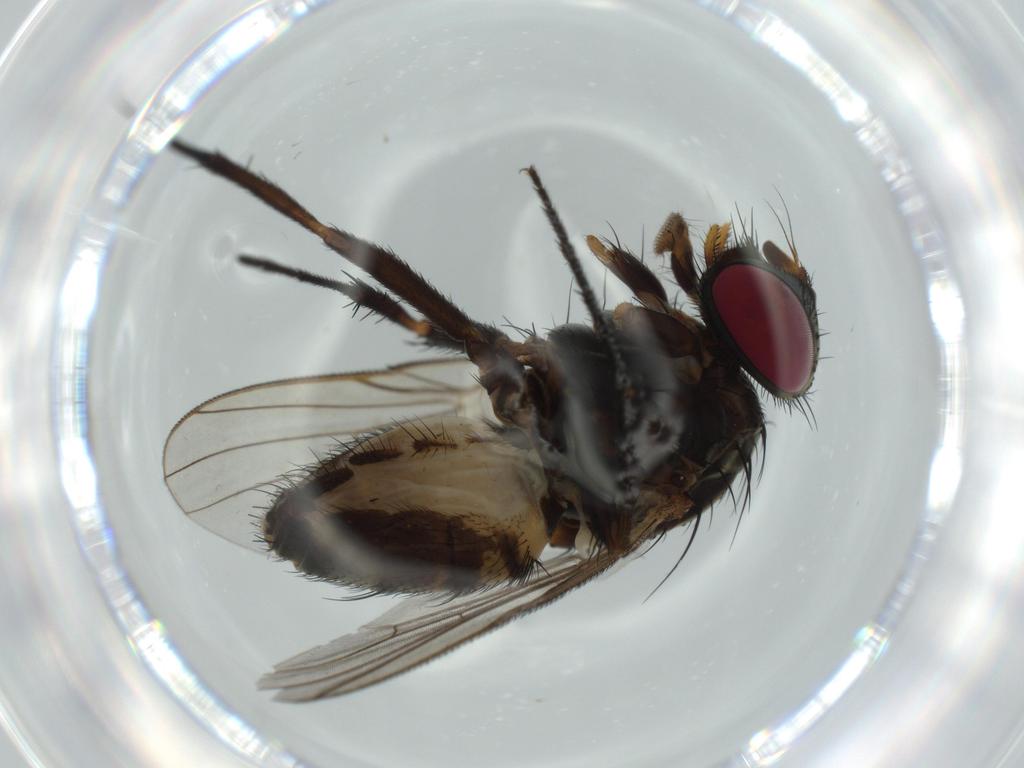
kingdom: Animalia
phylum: Arthropoda
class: Insecta
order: Diptera
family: Fannia
